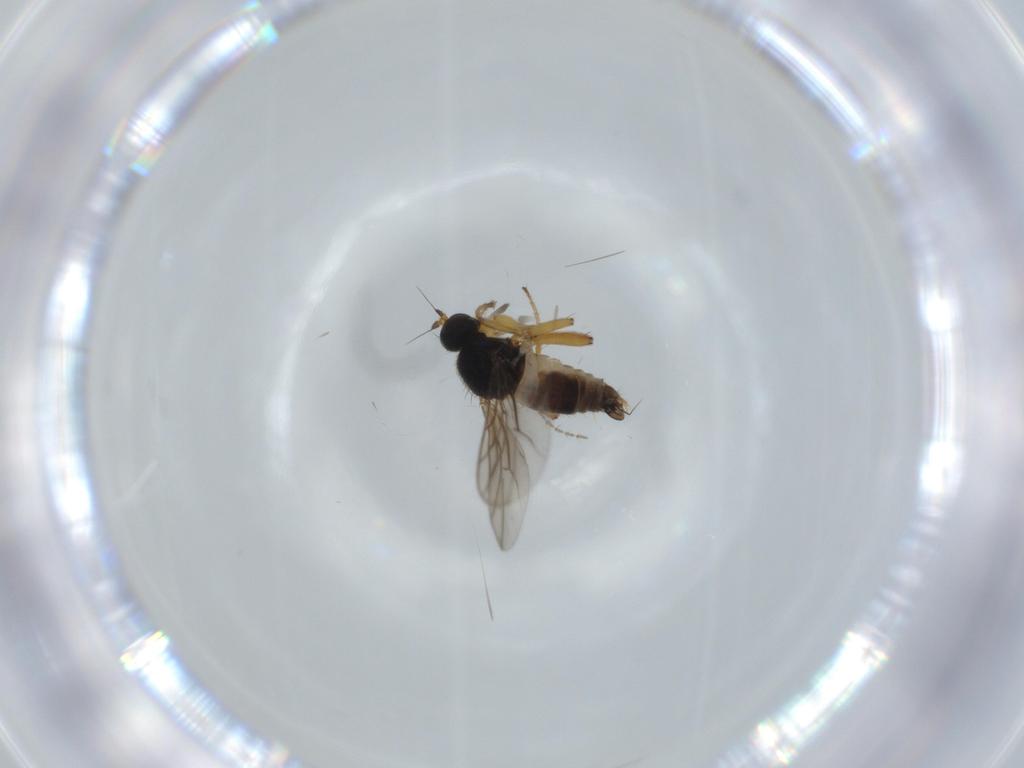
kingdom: Animalia
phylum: Arthropoda
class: Insecta
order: Diptera
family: Hybotidae
